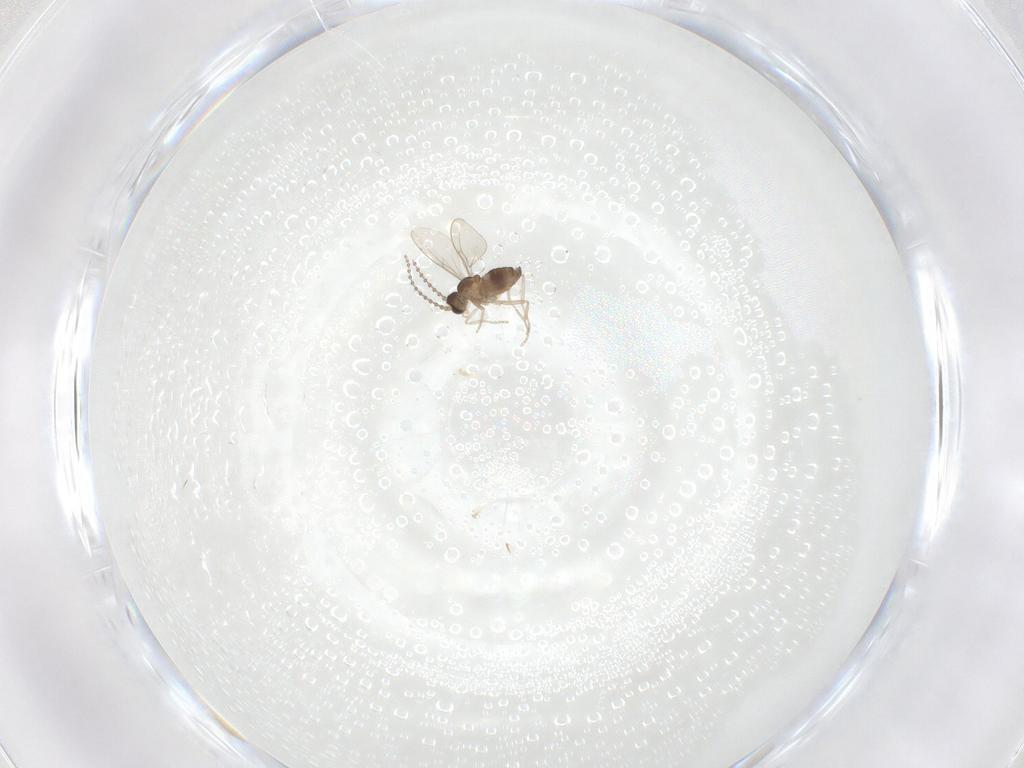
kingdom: Animalia
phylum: Arthropoda
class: Insecta
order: Diptera
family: Cecidomyiidae
